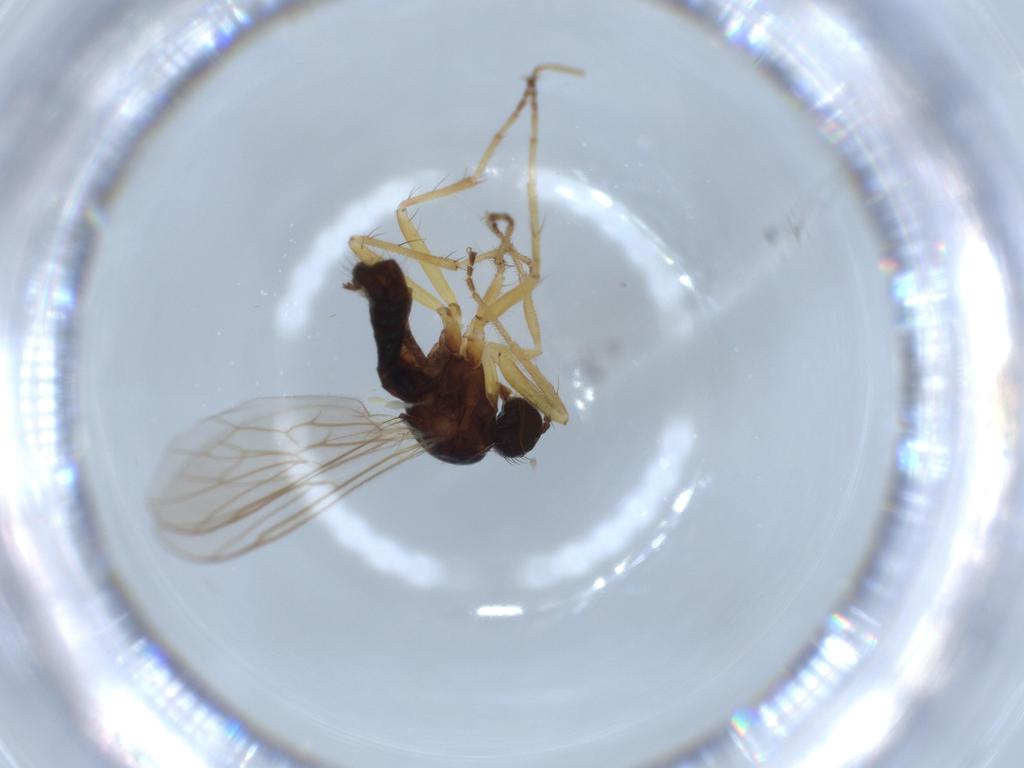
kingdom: Animalia
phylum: Arthropoda
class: Insecta
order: Diptera
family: Hybotidae
